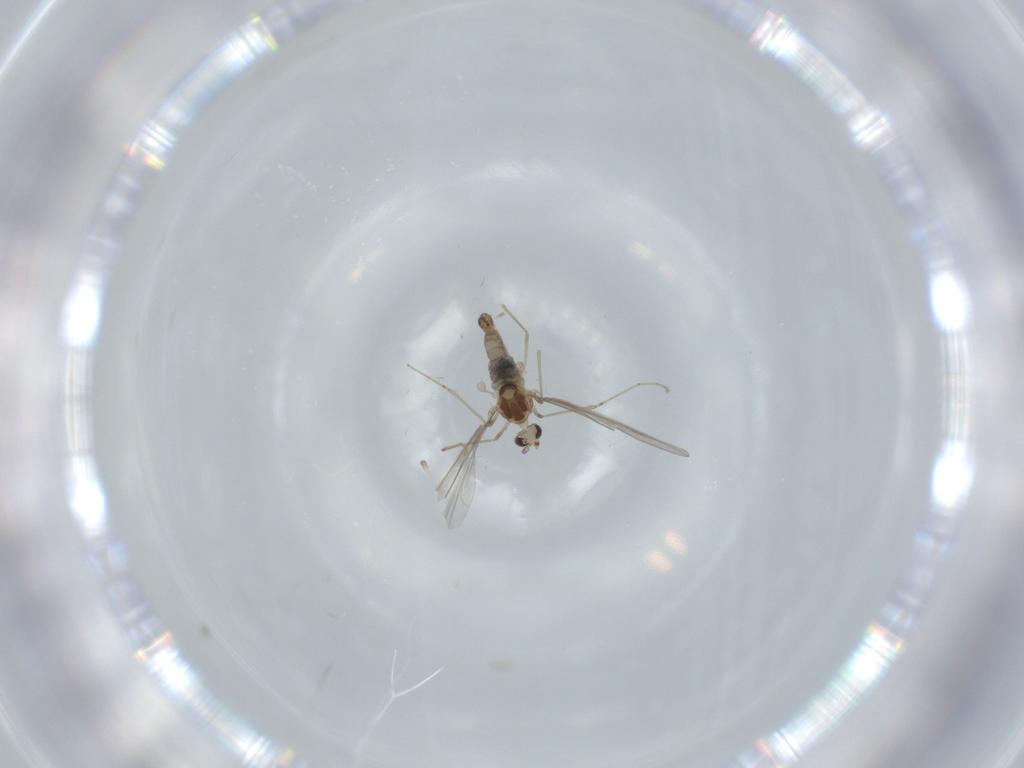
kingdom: Animalia
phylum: Arthropoda
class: Insecta
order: Diptera
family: Cecidomyiidae
